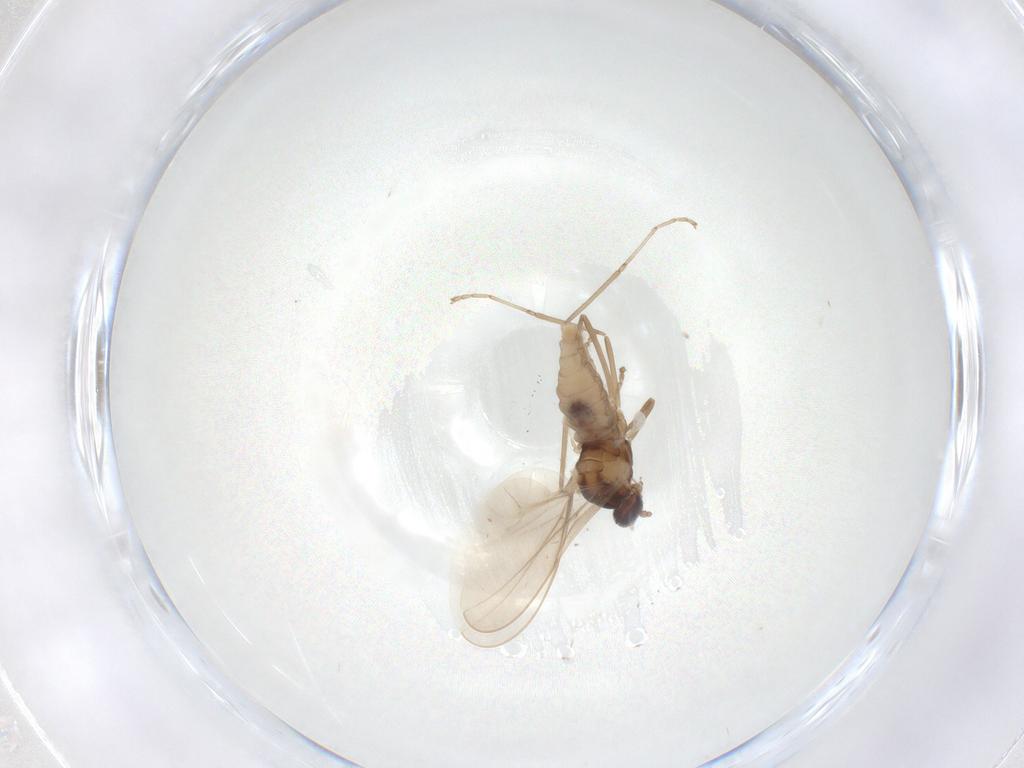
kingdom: Animalia
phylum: Arthropoda
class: Insecta
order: Diptera
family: Cecidomyiidae
